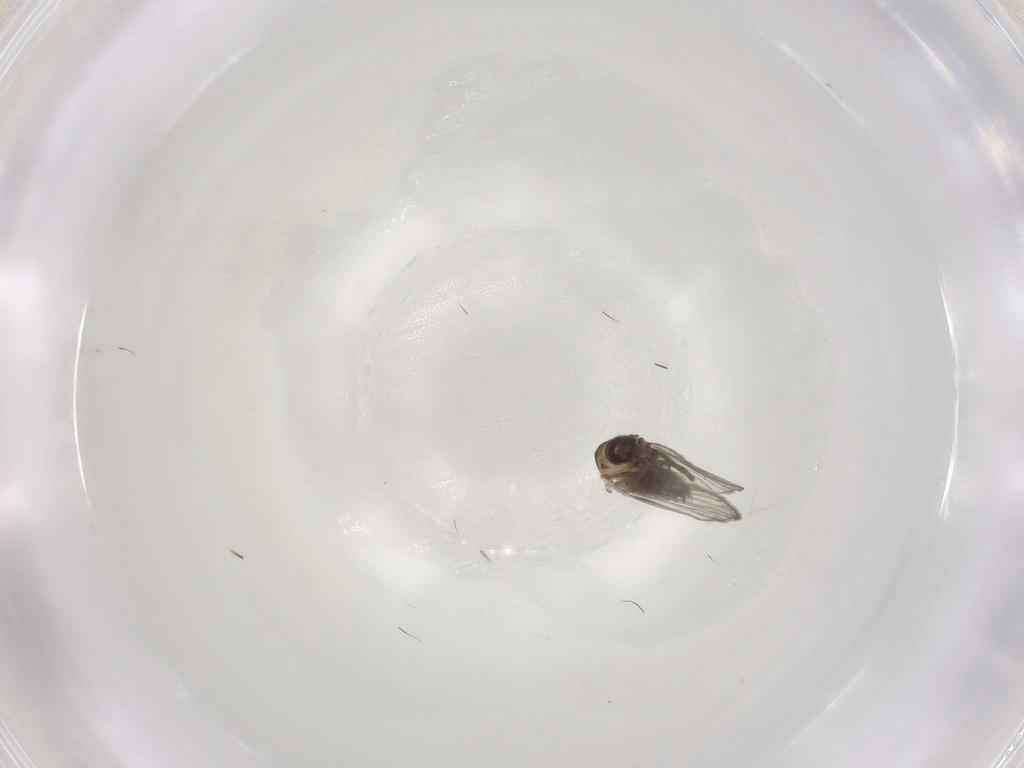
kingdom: Animalia
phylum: Arthropoda
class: Insecta
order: Diptera
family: Psychodidae
